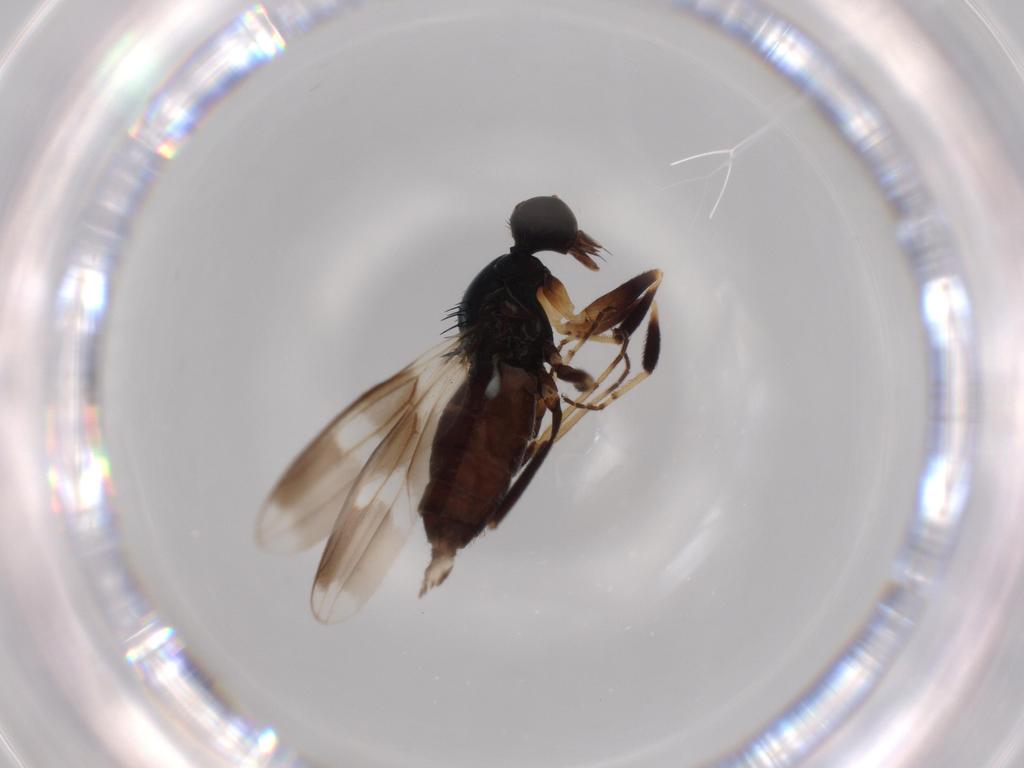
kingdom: Animalia
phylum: Arthropoda
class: Insecta
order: Diptera
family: Hybotidae
